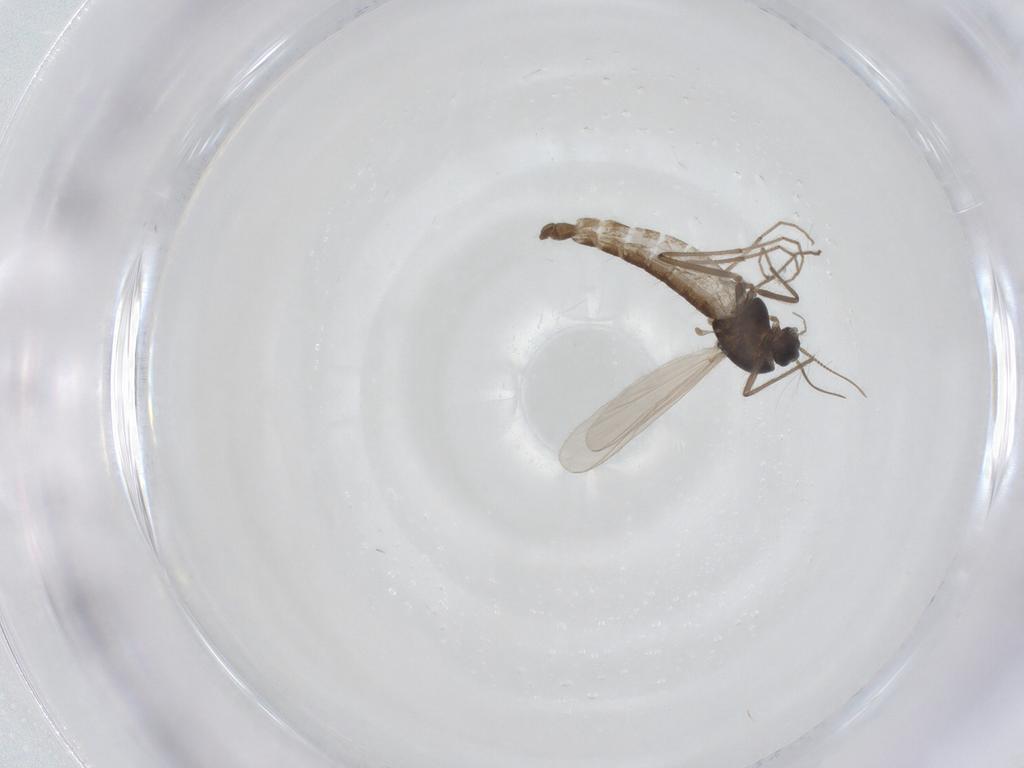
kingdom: Animalia
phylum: Arthropoda
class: Insecta
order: Diptera
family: Chironomidae
